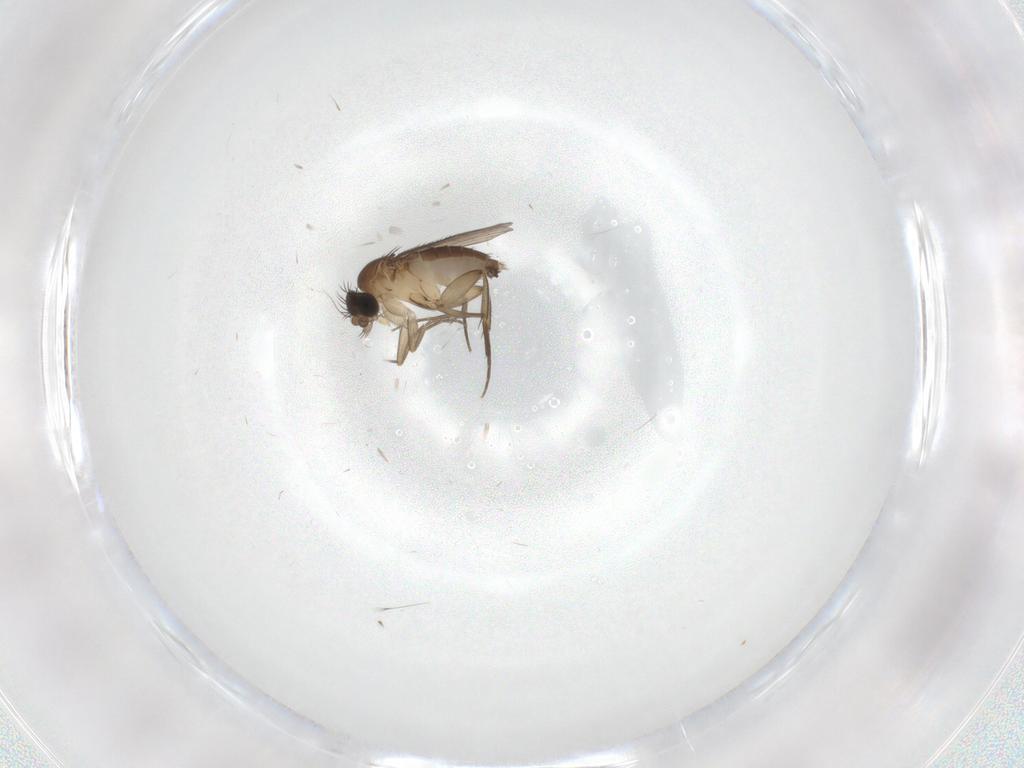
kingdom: Animalia
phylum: Arthropoda
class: Insecta
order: Diptera
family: Phoridae
